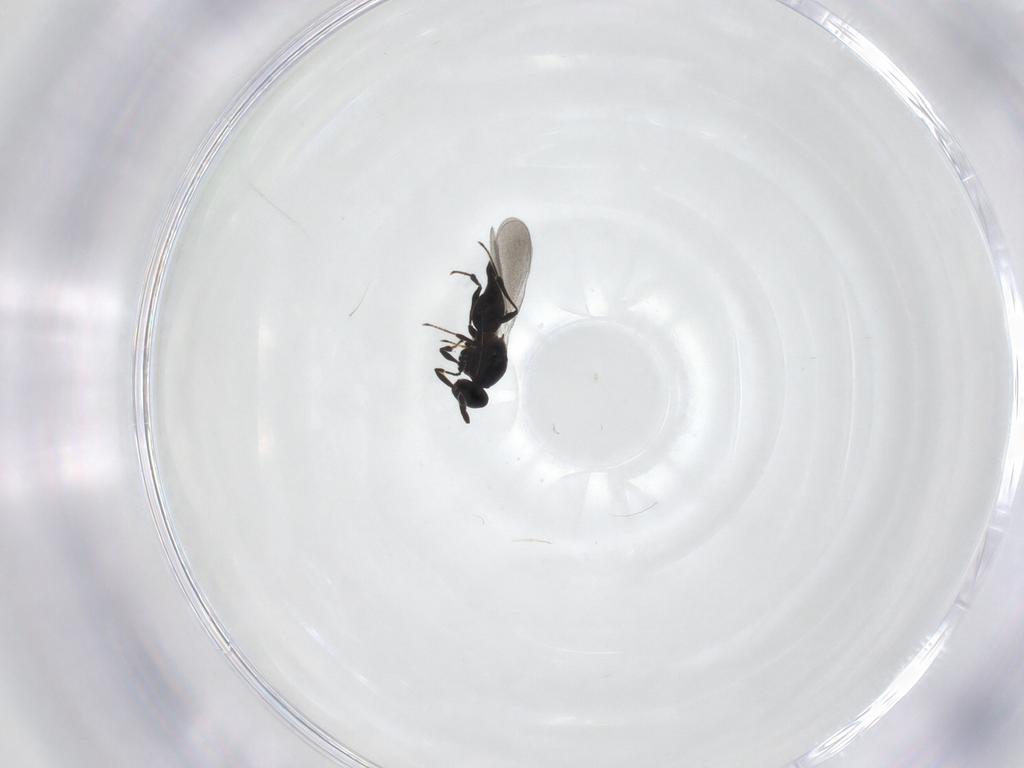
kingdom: Animalia
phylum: Arthropoda
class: Insecta
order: Hymenoptera
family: Platygastridae
